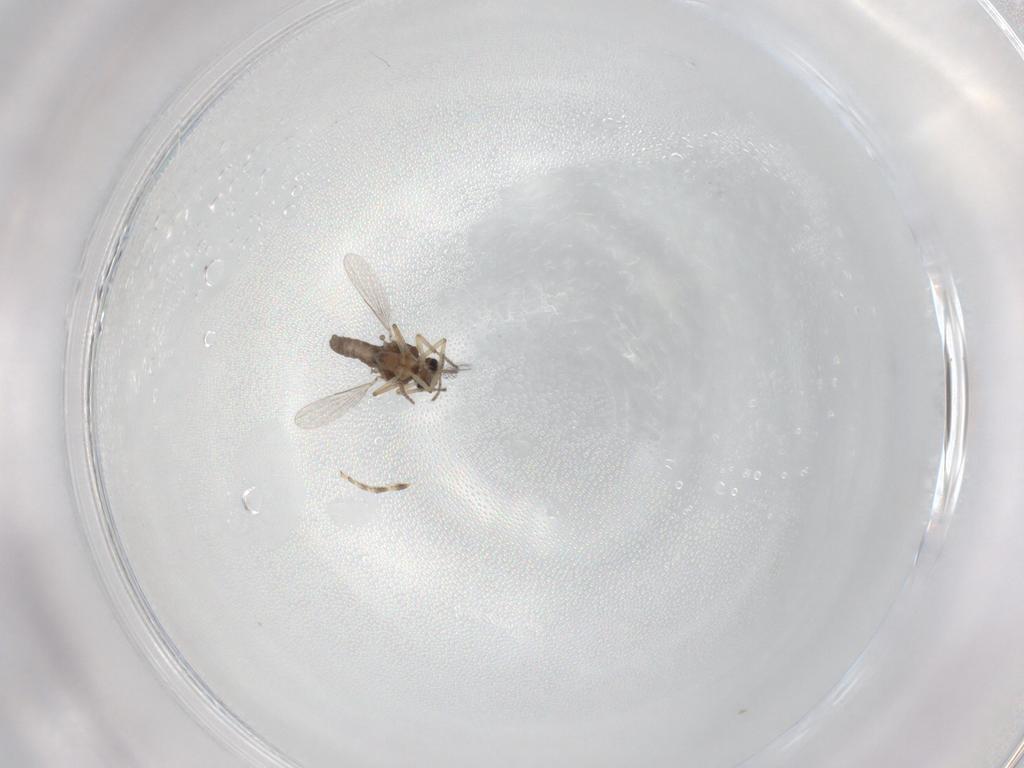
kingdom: Animalia
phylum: Arthropoda
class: Insecta
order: Diptera
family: Ceratopogonidae
